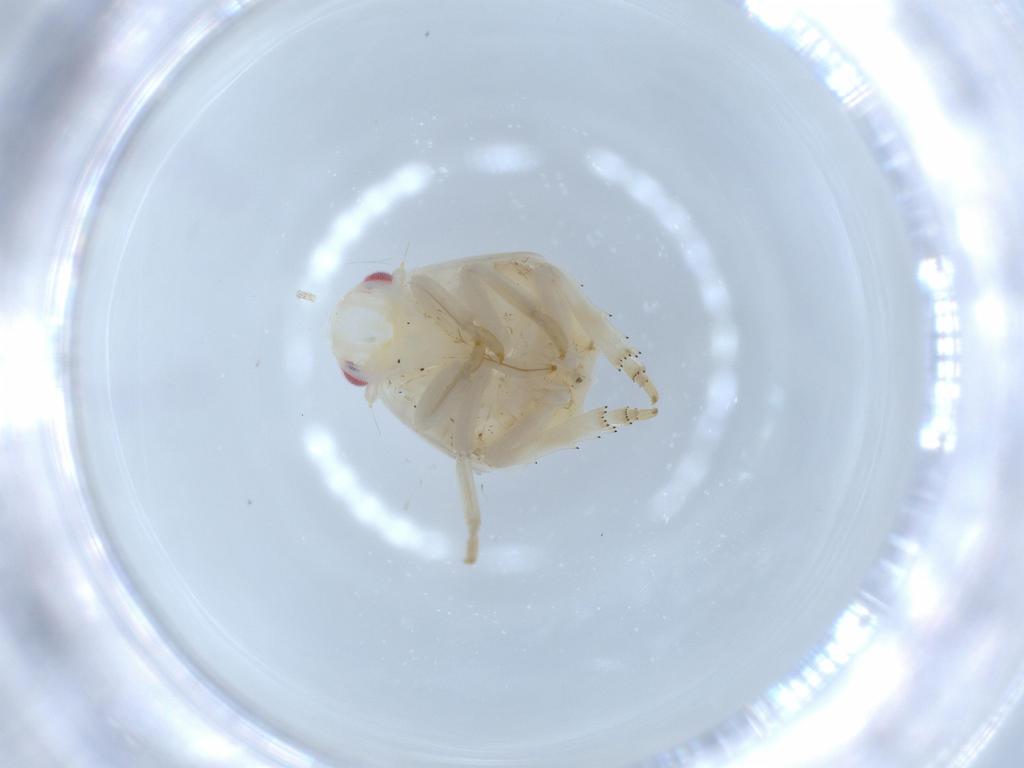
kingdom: Animalia
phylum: Arthropoda
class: Insecta
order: Hemiptera
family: Flatidae
